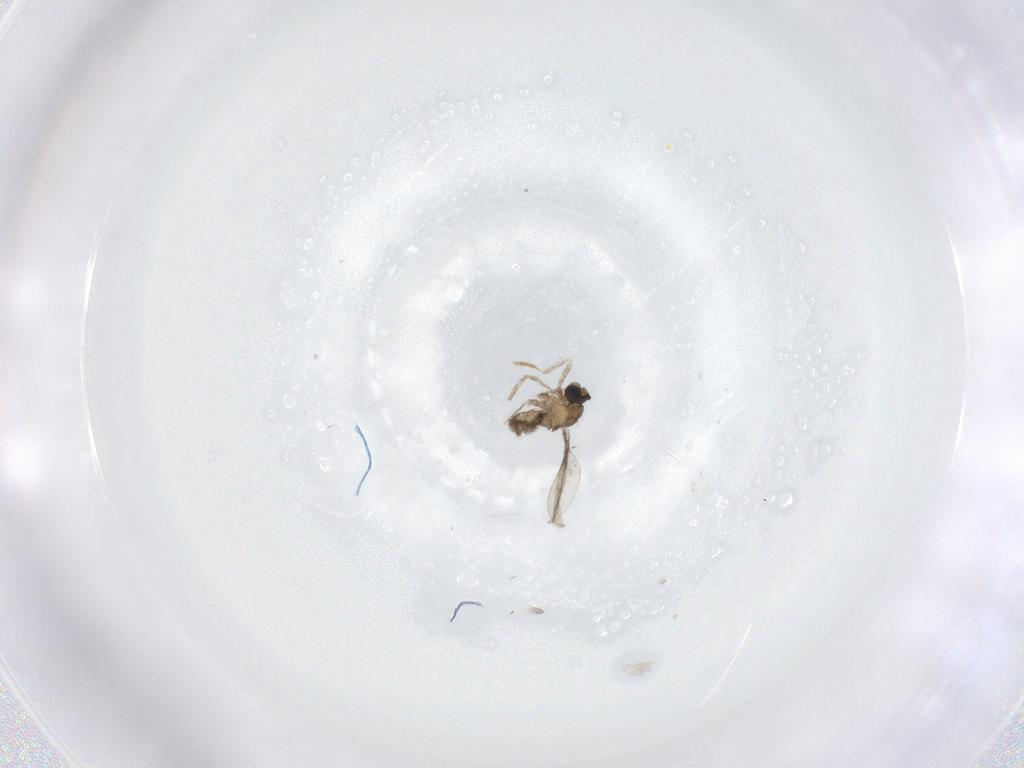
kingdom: Animalia
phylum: Arthropoda
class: Insecta
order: Diptera
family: Cecidomyiidae
